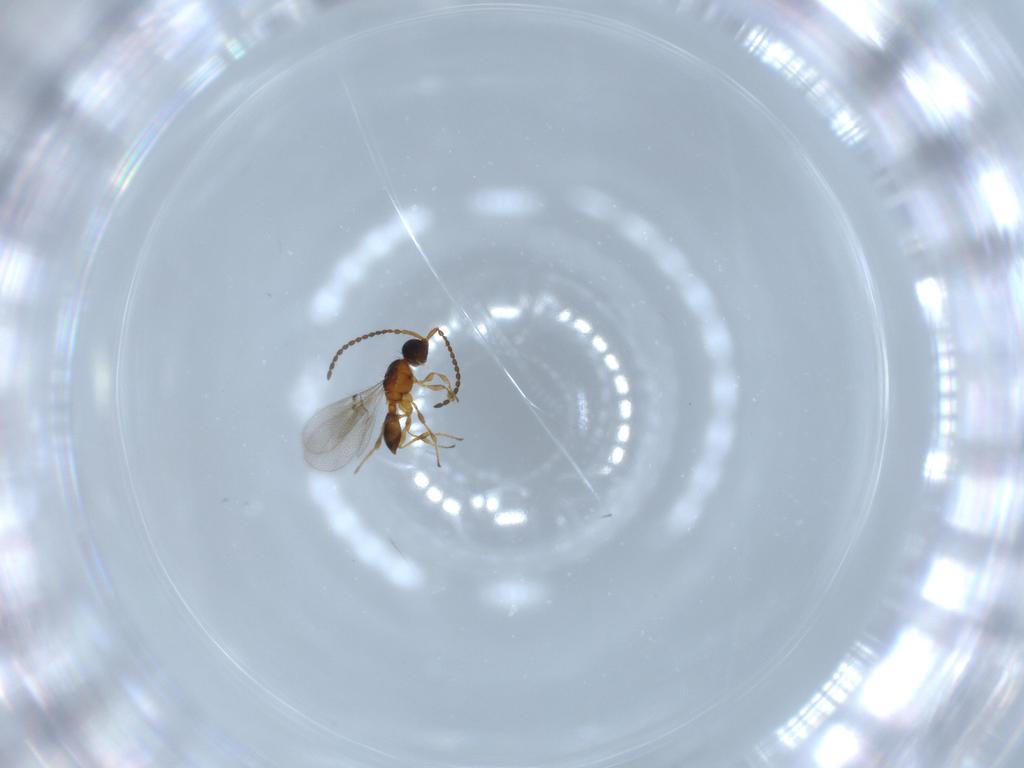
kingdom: Animalia
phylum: Arthropoda
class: Insecta
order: Hymenoptera
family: Diapriidae
